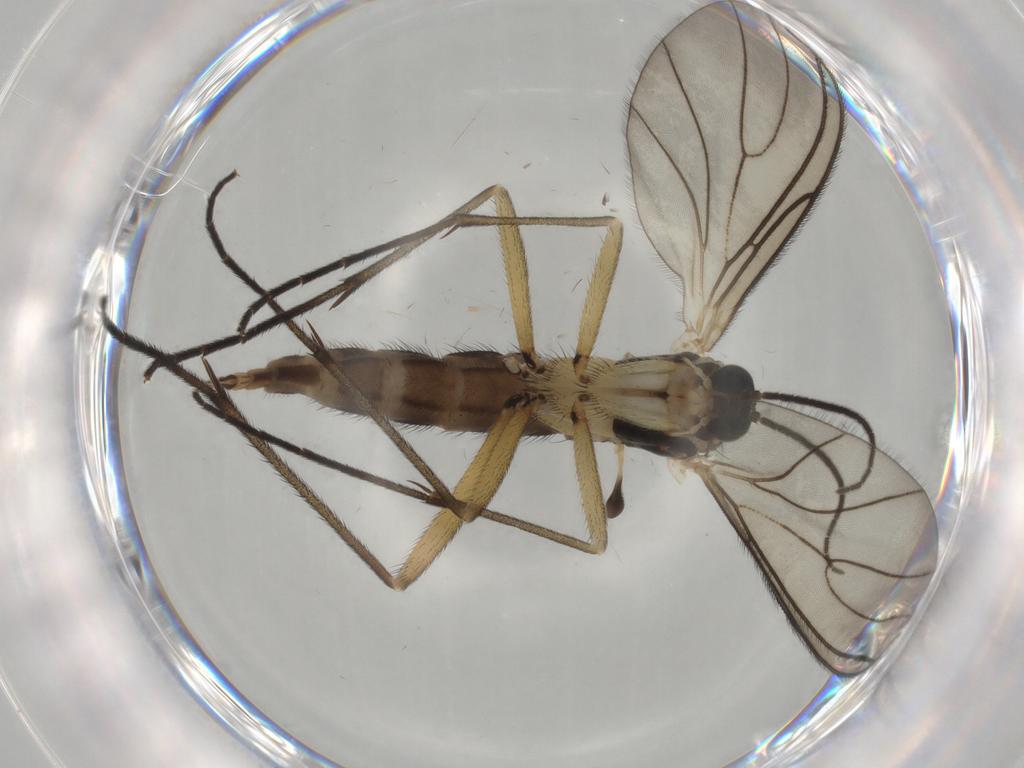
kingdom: Animalia
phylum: Arthropoda
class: Insecta
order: Diptera
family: Sciaridae
